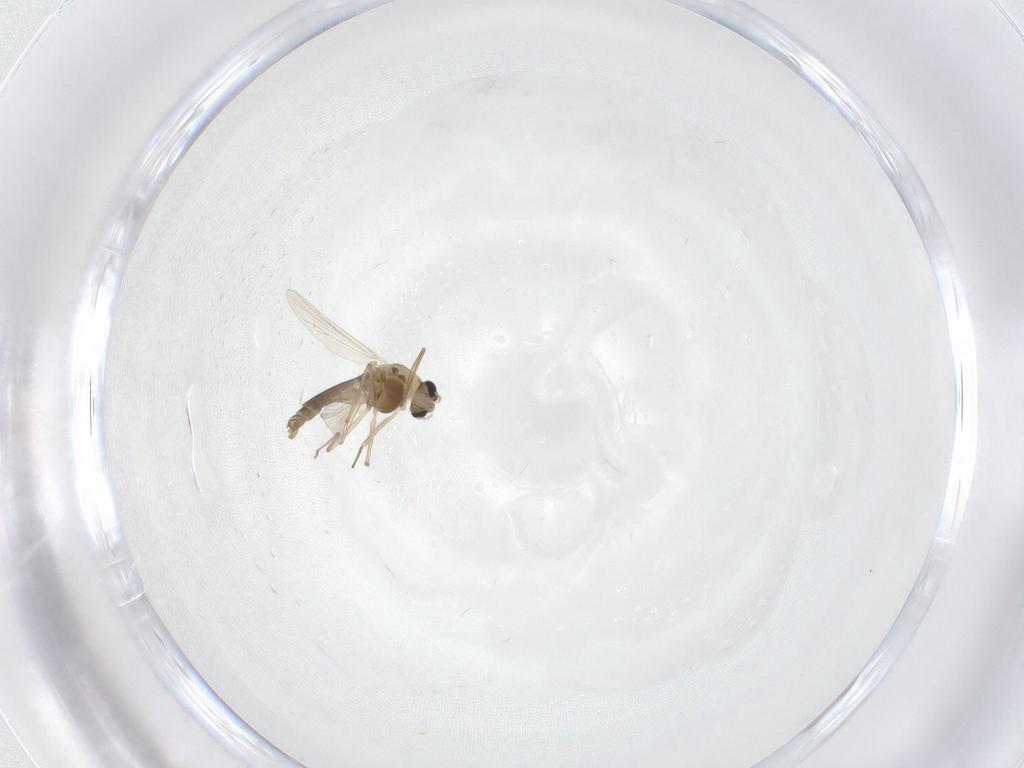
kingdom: Animalia
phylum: Arthropoda
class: Insecta
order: Diptera
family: Chironomidae
